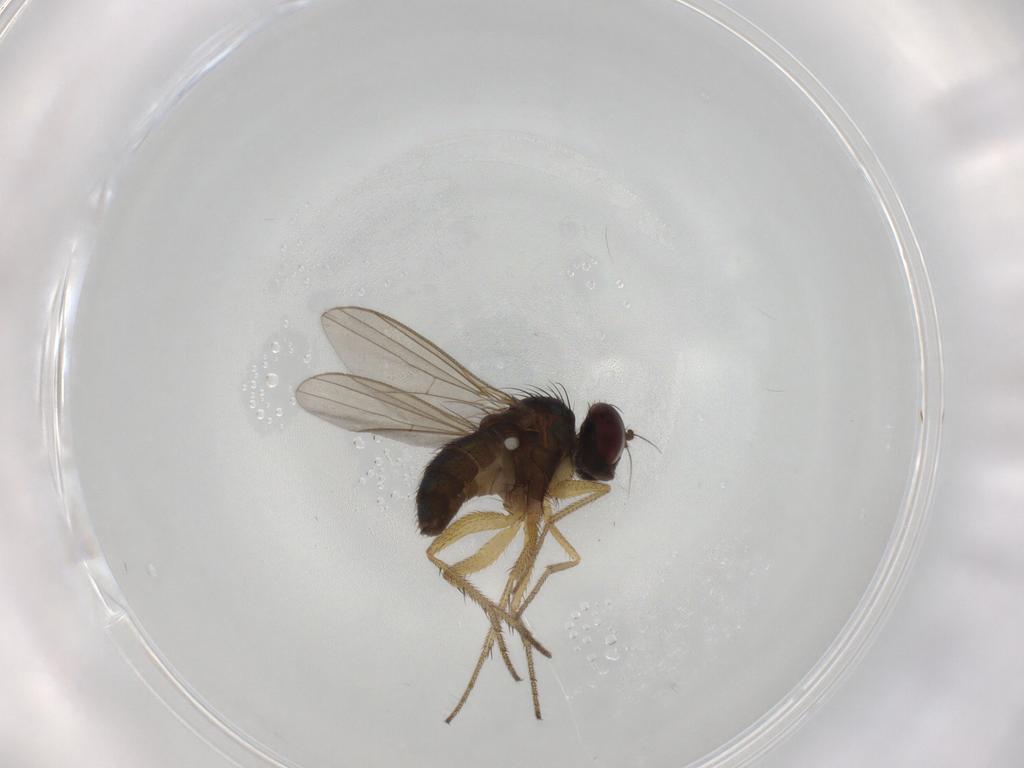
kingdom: Animalia
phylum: Arthropoda
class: Insecta
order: Diptera
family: Chironomidae
